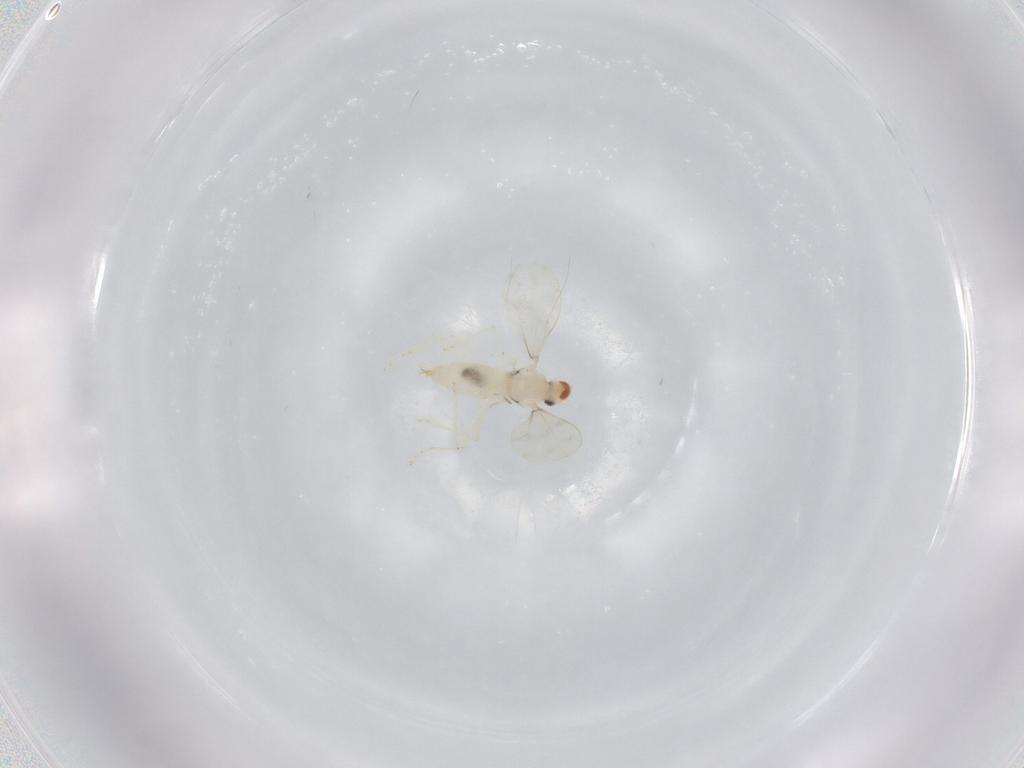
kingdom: Animalia
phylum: Arthropoda
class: Insecta
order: Diptera
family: Cecidomyiidae
